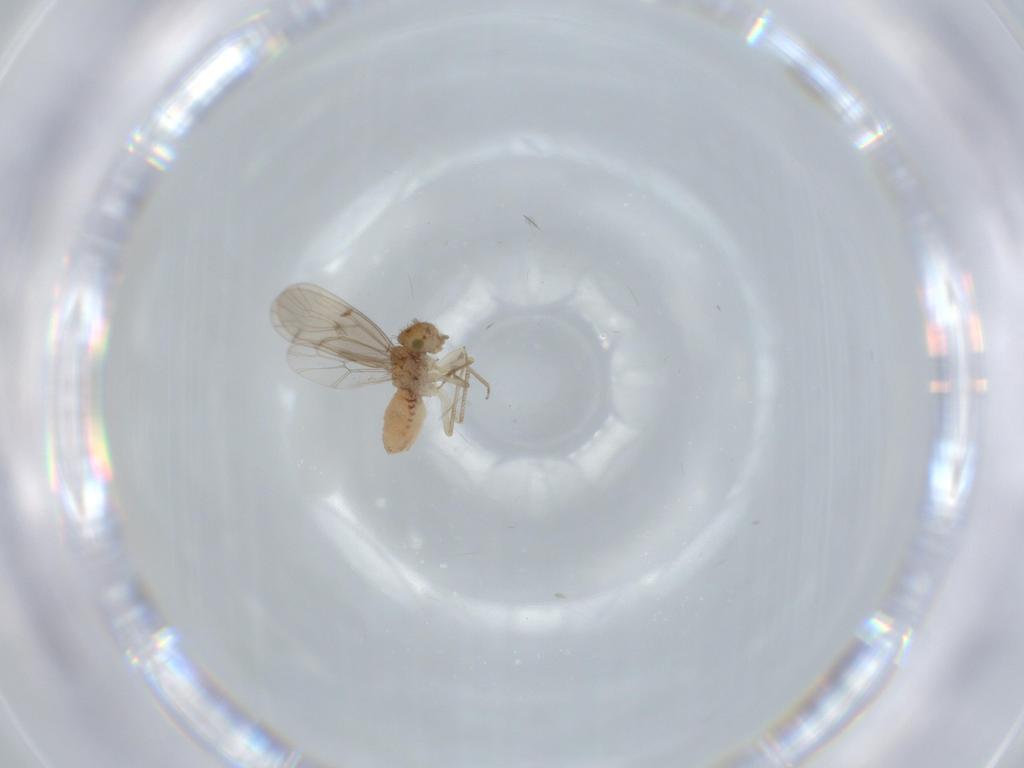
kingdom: Animalia
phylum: Arthropoda
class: Insecta
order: Psocodea
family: Ectopsocidae
